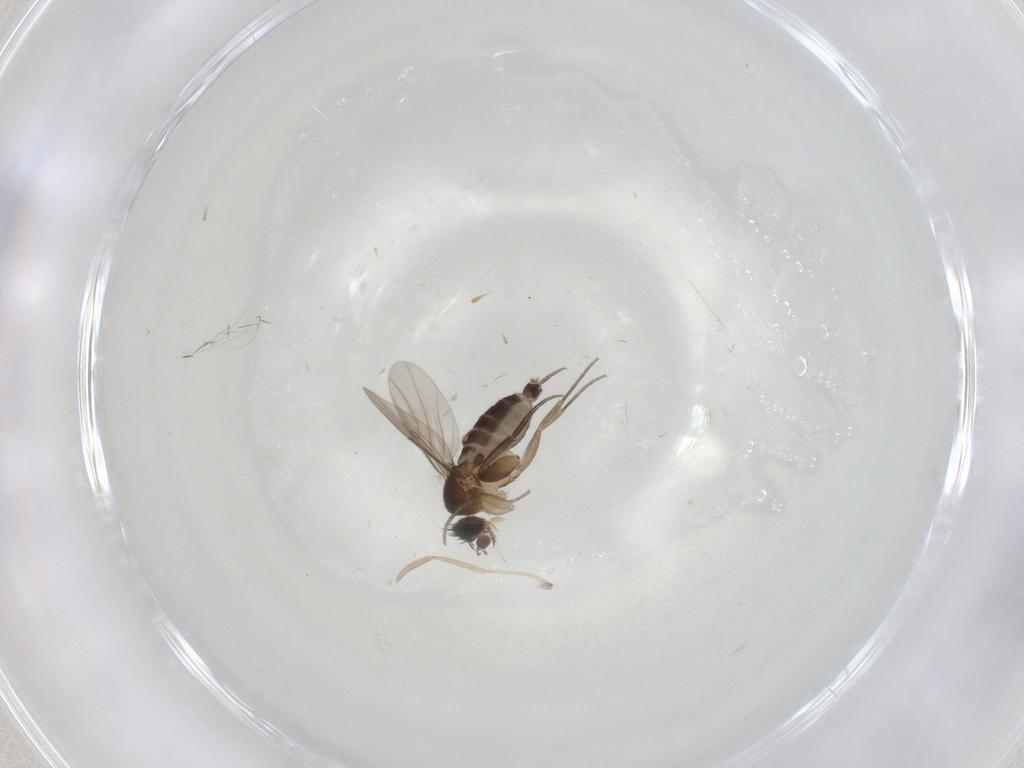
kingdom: Animalia
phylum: Arthropoda
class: Insecta
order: Diptera
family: Phoridae
